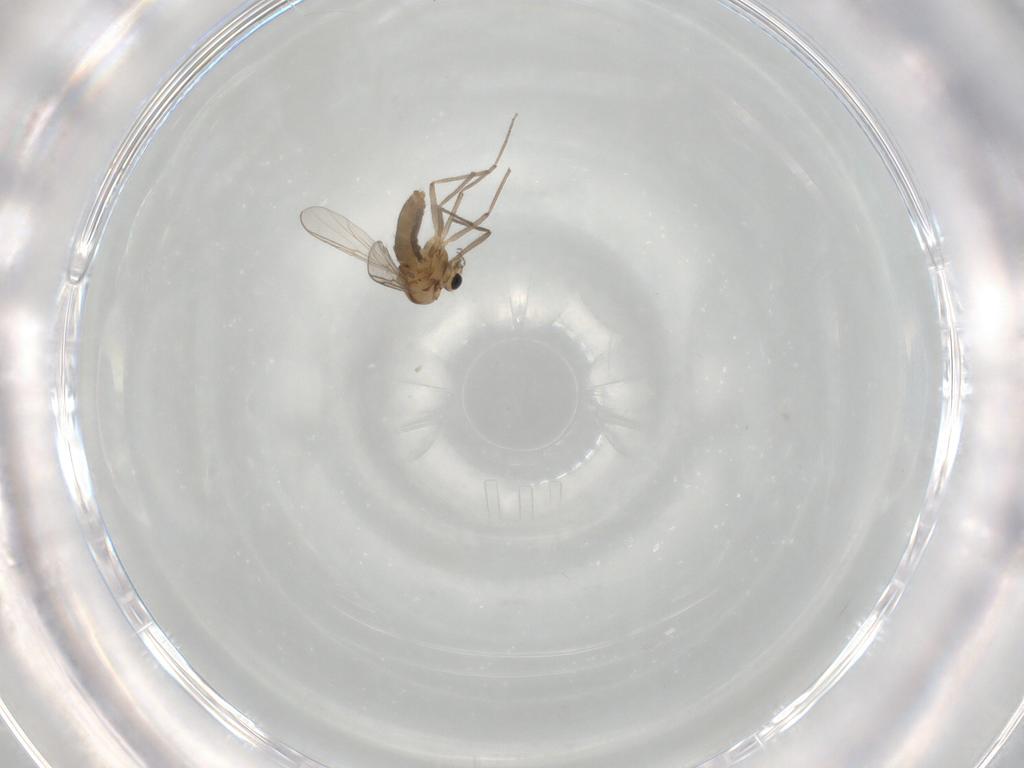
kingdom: Animalia
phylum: Arthropoda
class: Insecta
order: Diptera
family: Chironomidae
